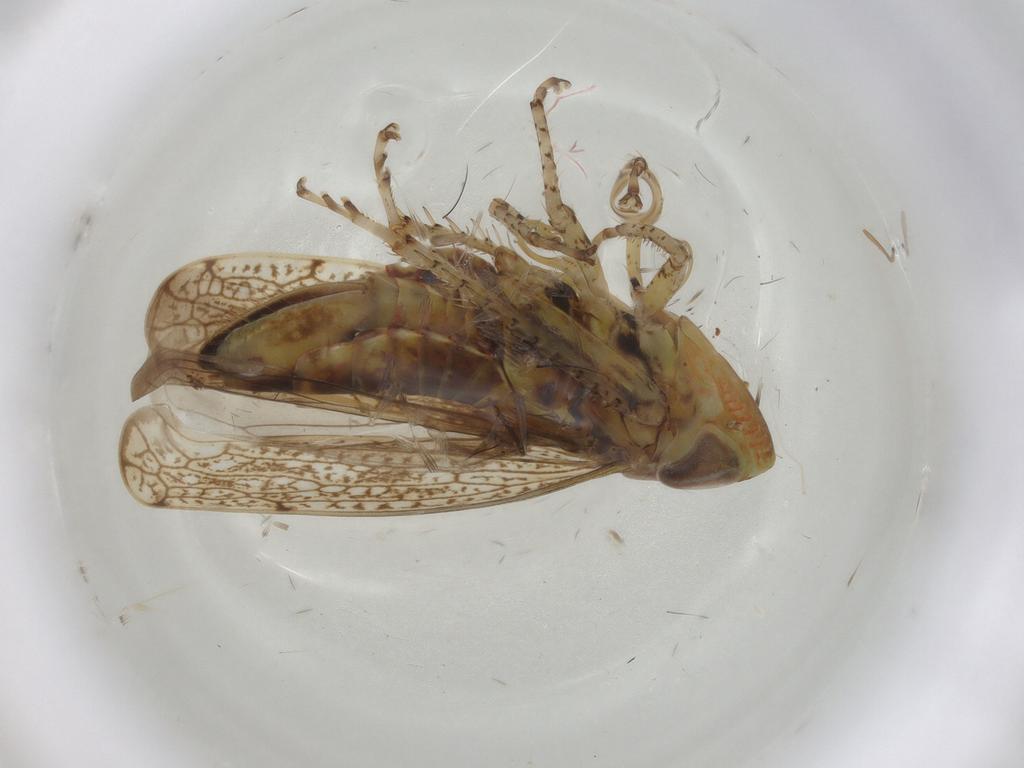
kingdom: Animalia
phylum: Arthropoda
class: Insecta
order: Hemiptera
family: Cicadellidae
